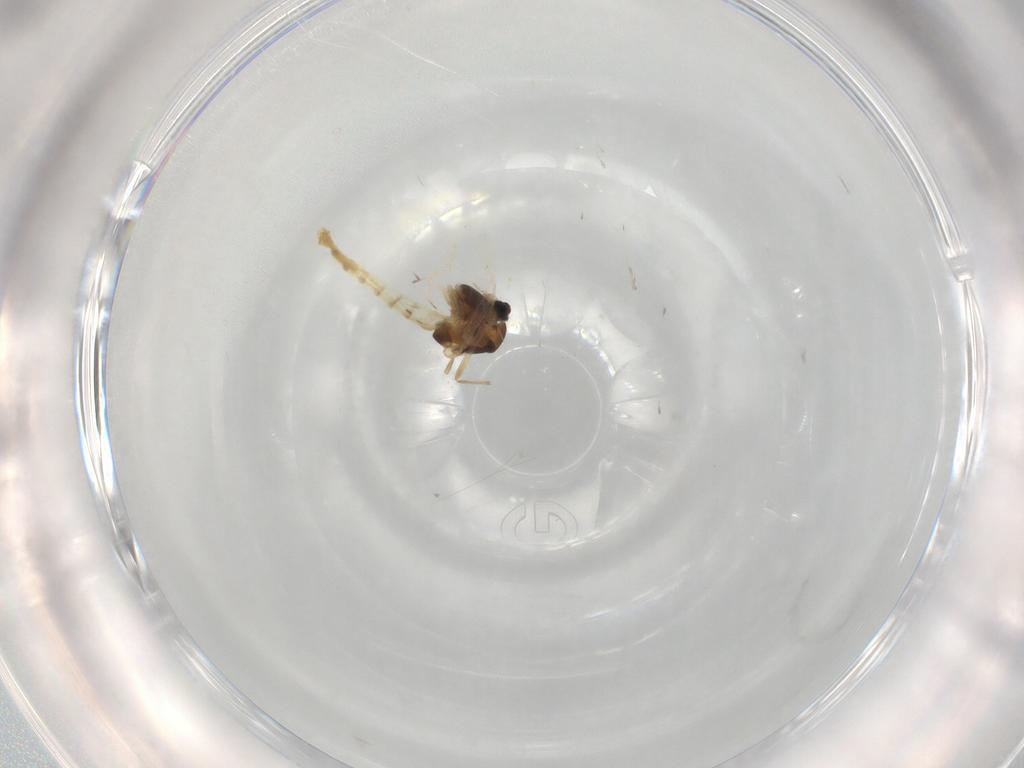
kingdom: Animalia
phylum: Arthropoda
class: Insecta
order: Diptera
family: Chironomidae
